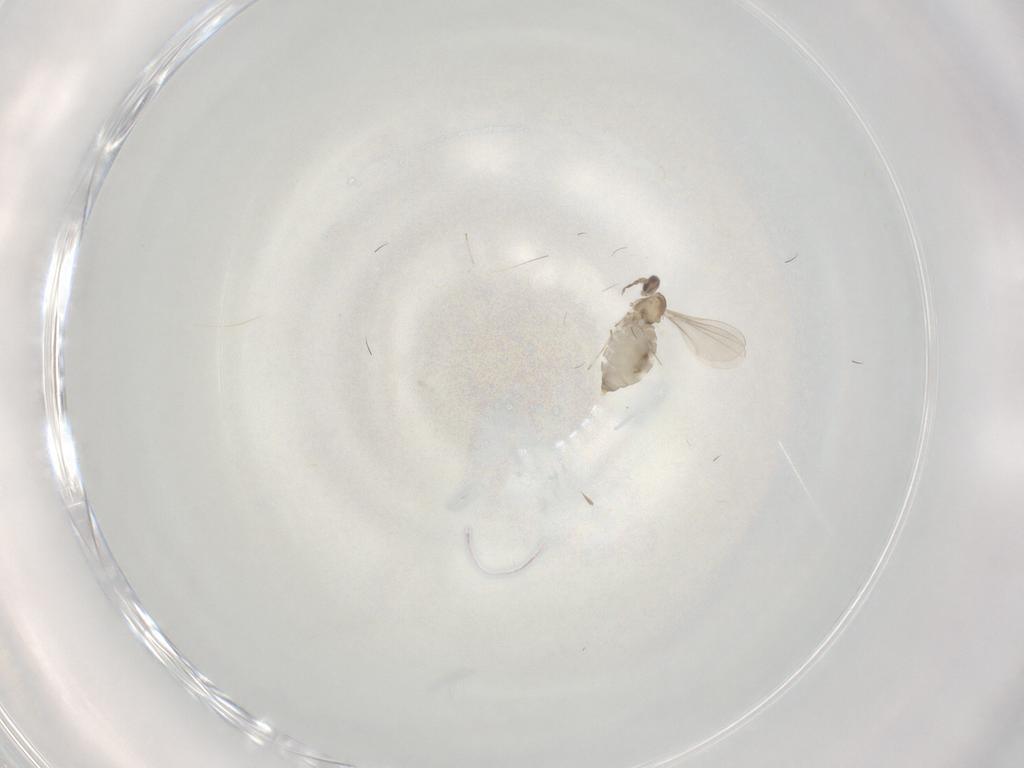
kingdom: Animalia
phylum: Arthropoda
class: Insecta
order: Diptera
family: Cecidomyiidae
